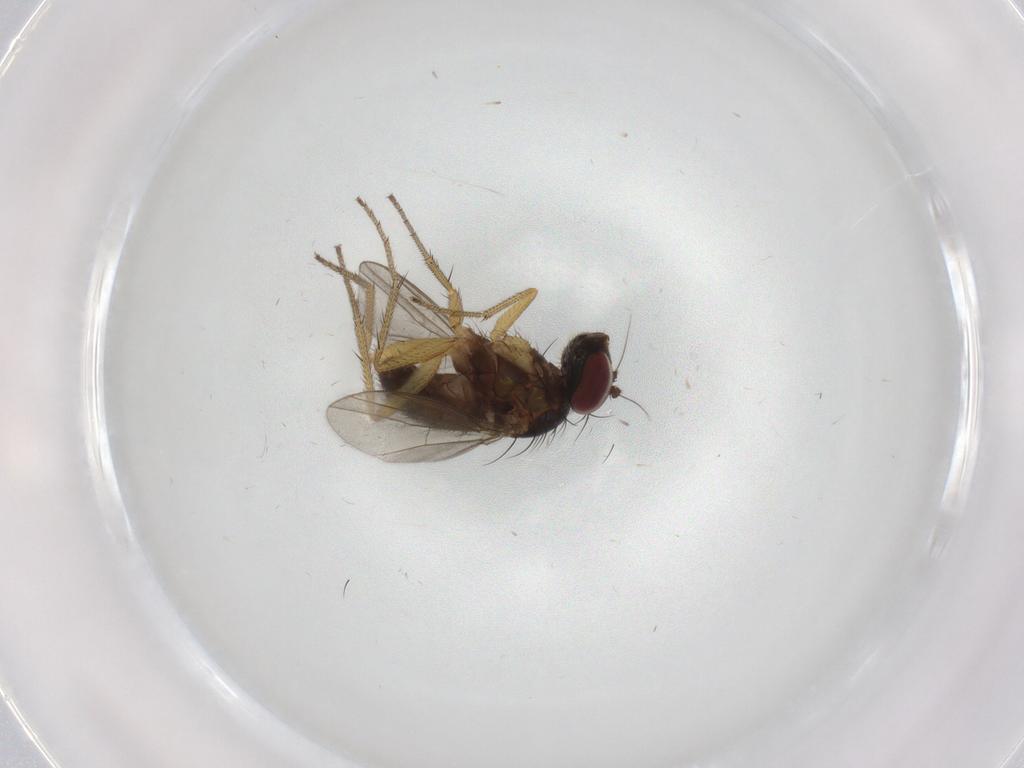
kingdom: Animalia
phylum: Arthropoda
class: Insecta
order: Diptera
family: Dolichopodidae
